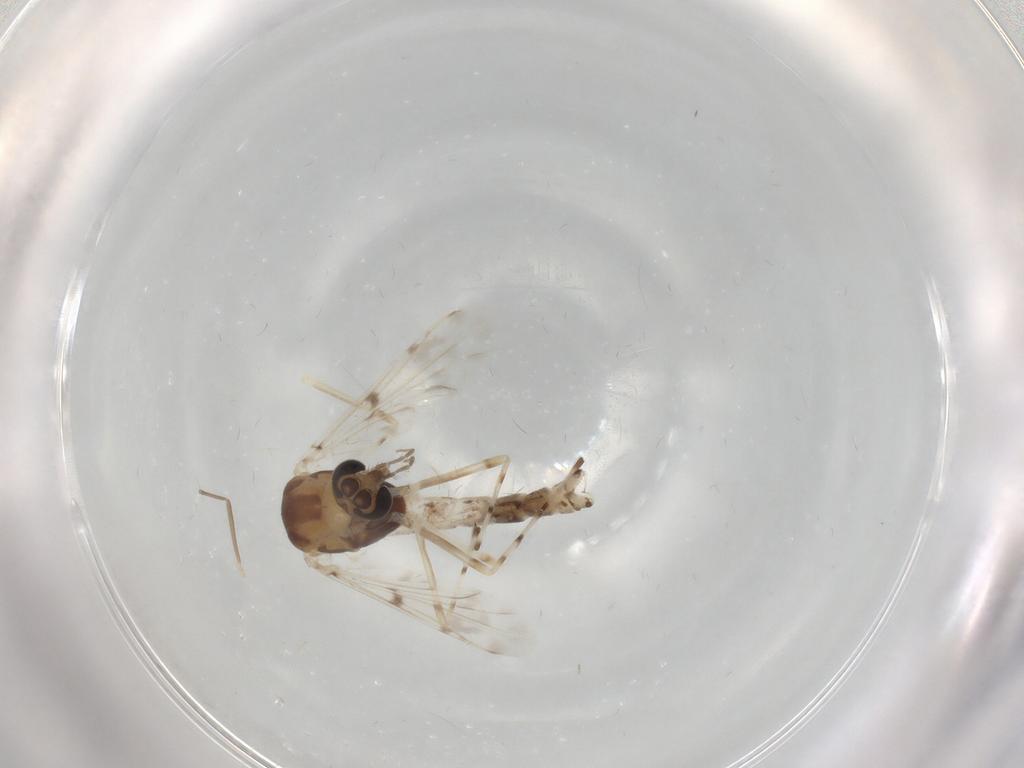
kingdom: Animalia
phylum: Arthropoda
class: Insecta
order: Diptera
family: Chironomidae
